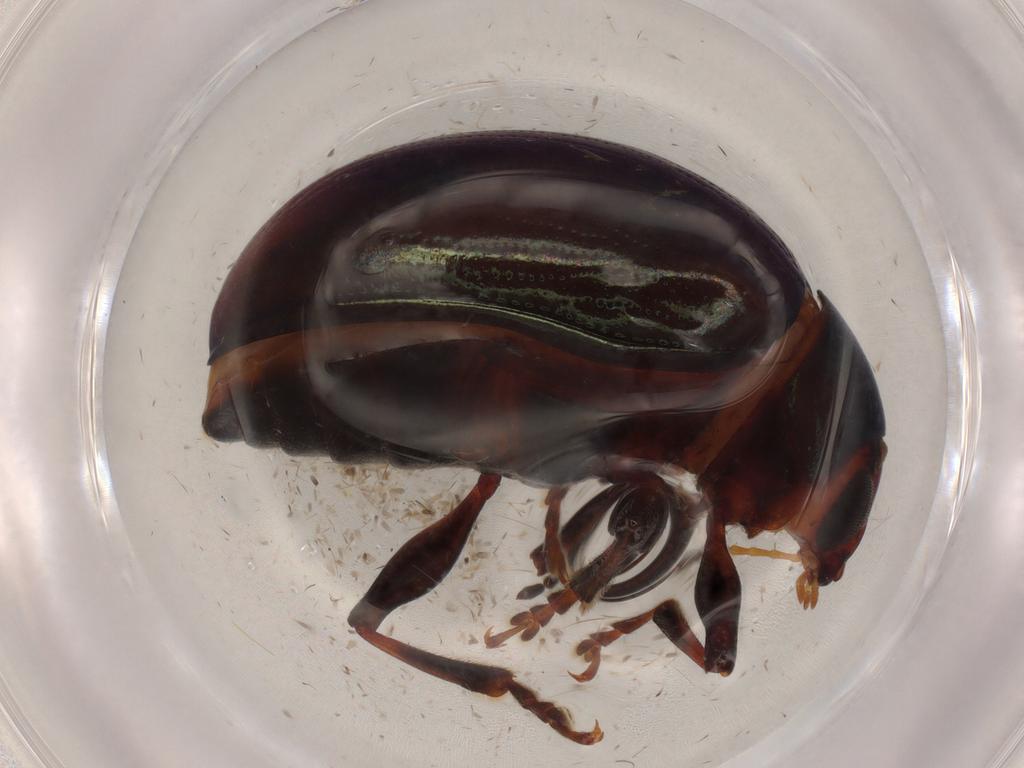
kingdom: Animalia
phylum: Arthropoda
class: Insecta
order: Coleoptera
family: Chrysomelidae
